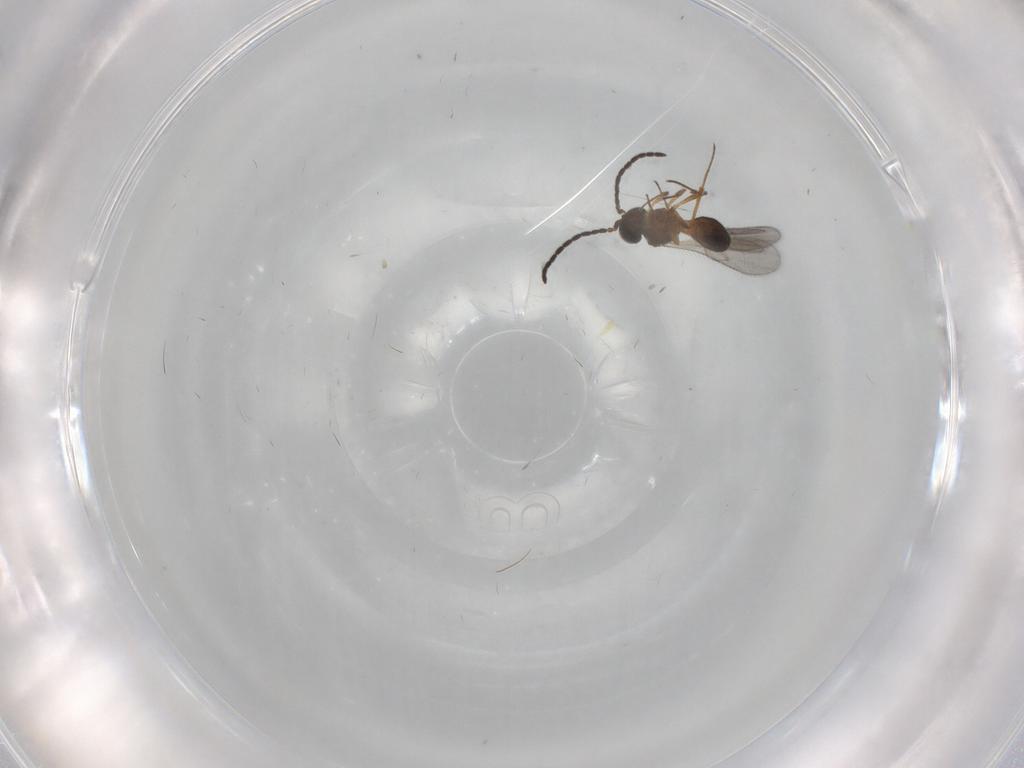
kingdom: Animalia
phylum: Arthropoda
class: Insecta
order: Hymenoptera
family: Scelionidae
